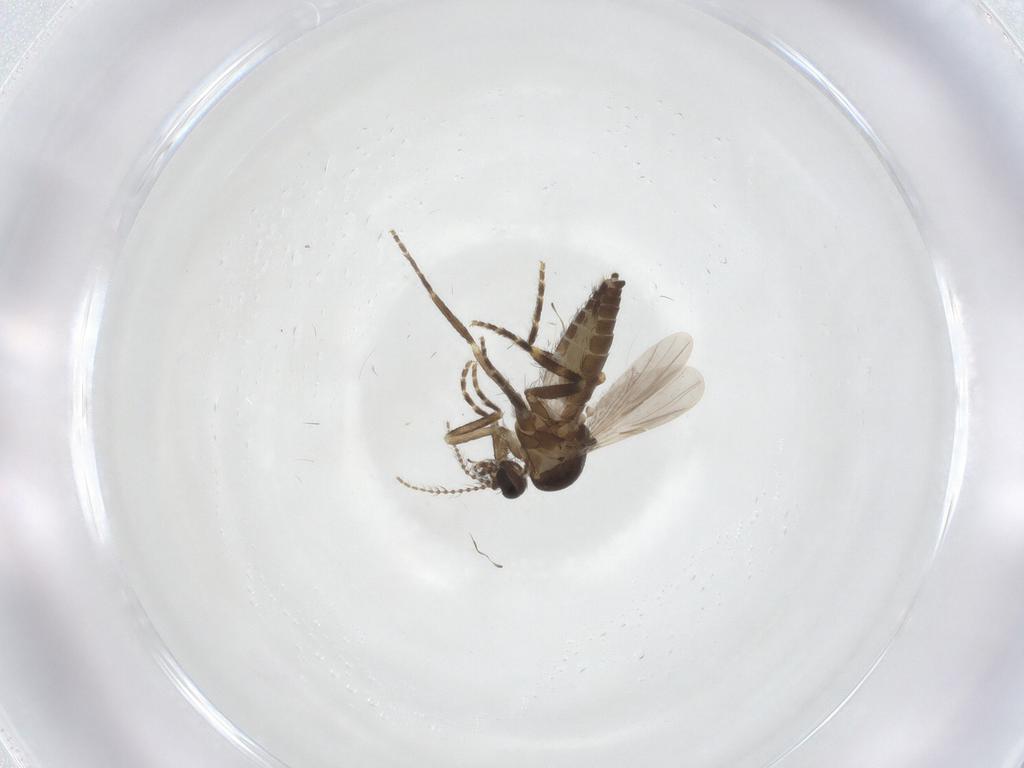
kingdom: Animalia
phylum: Arthropoda
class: Insecta
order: Diptera
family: Ceratopogonidae
